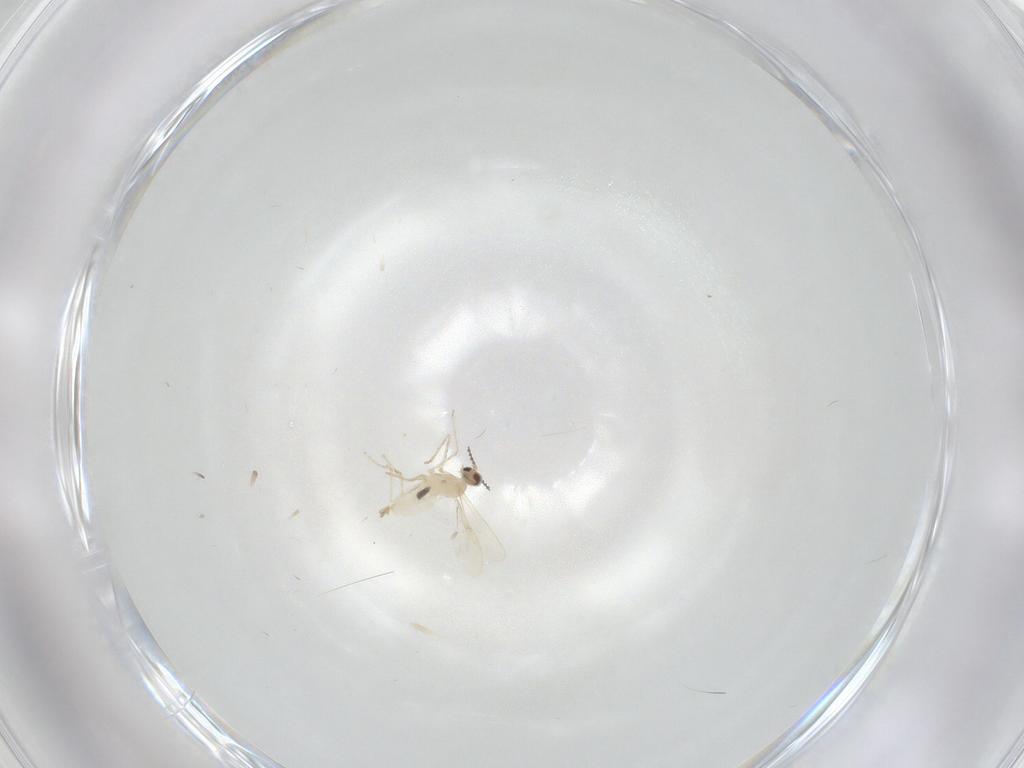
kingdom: Animalia
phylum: Arthropoda
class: Insecta
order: Diptera
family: Cecidomyiidae
